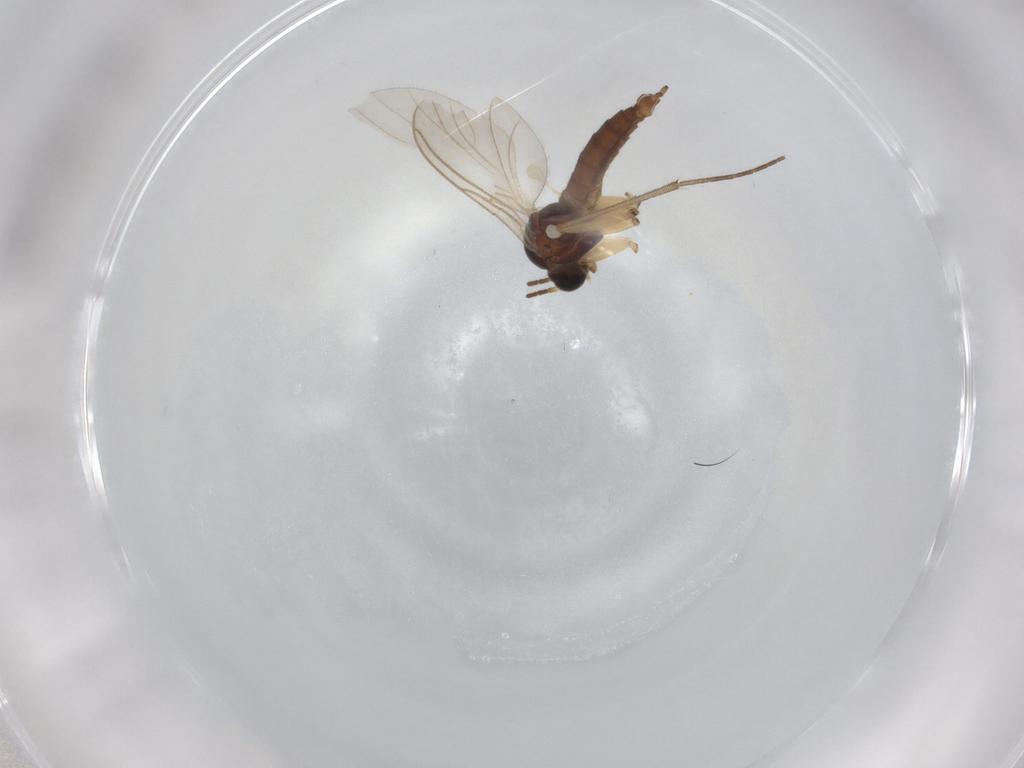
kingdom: Animalia
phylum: Arthropoda
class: Insecta
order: Diptera
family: Sciaridae
